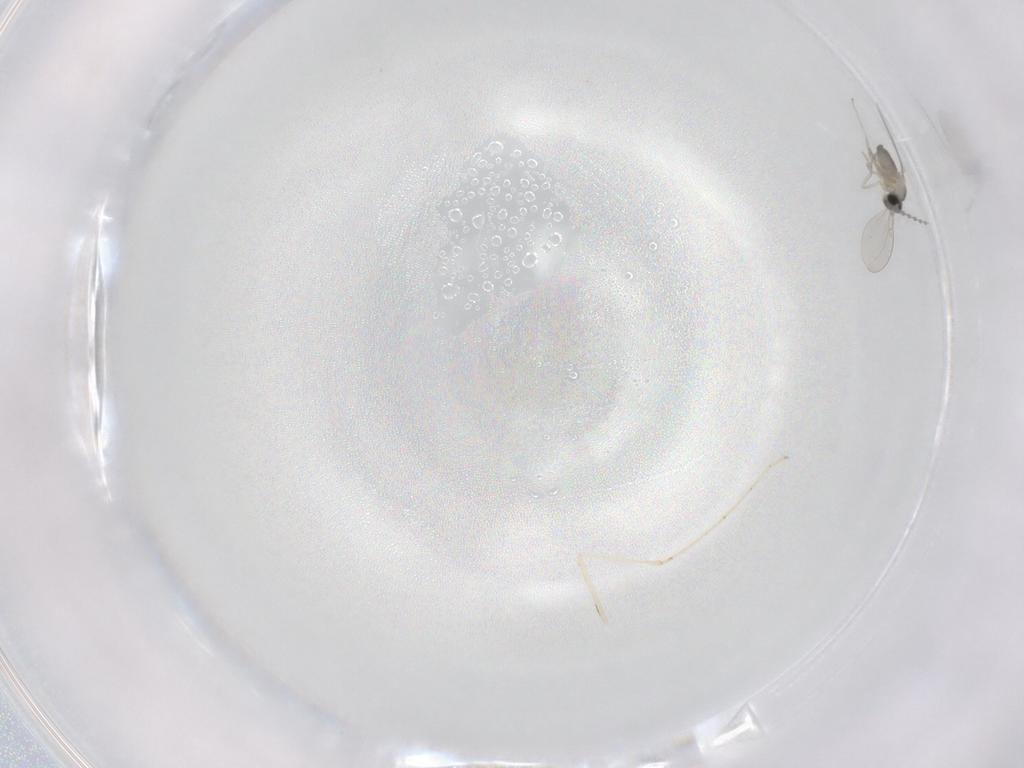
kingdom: Animalia
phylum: Arthropoda
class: Insecta
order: Diptera
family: Cecidomyiidae
